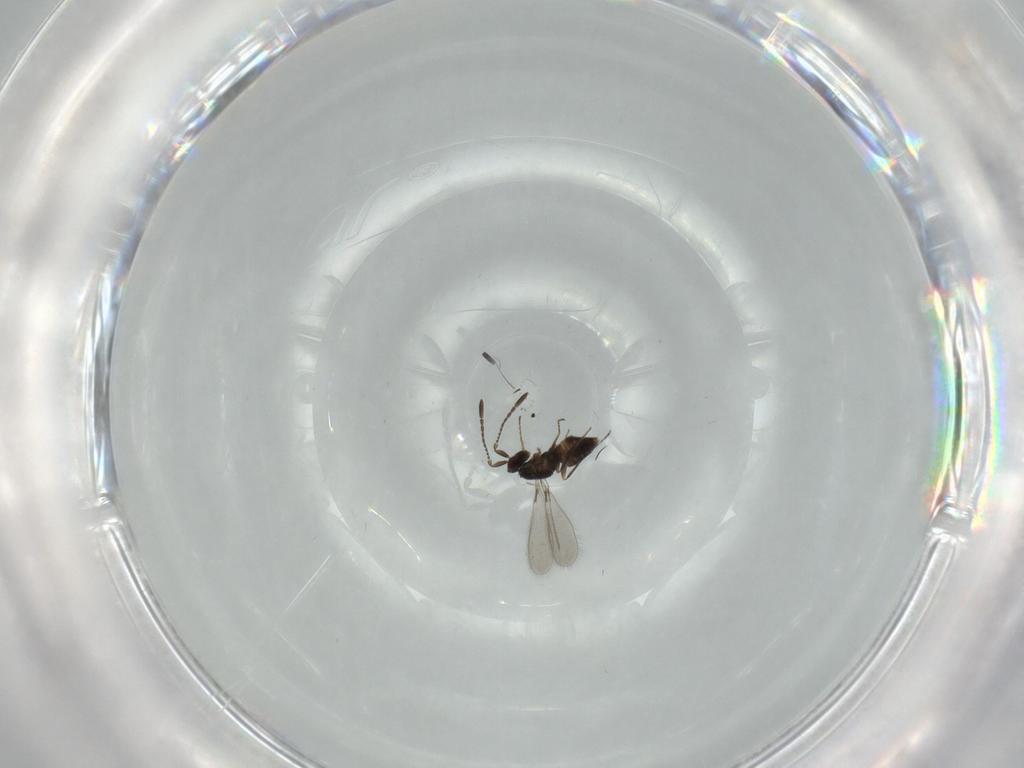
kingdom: Animalia
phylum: Arthropoda
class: Insecta
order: Hymenoptera
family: Mymaridae
